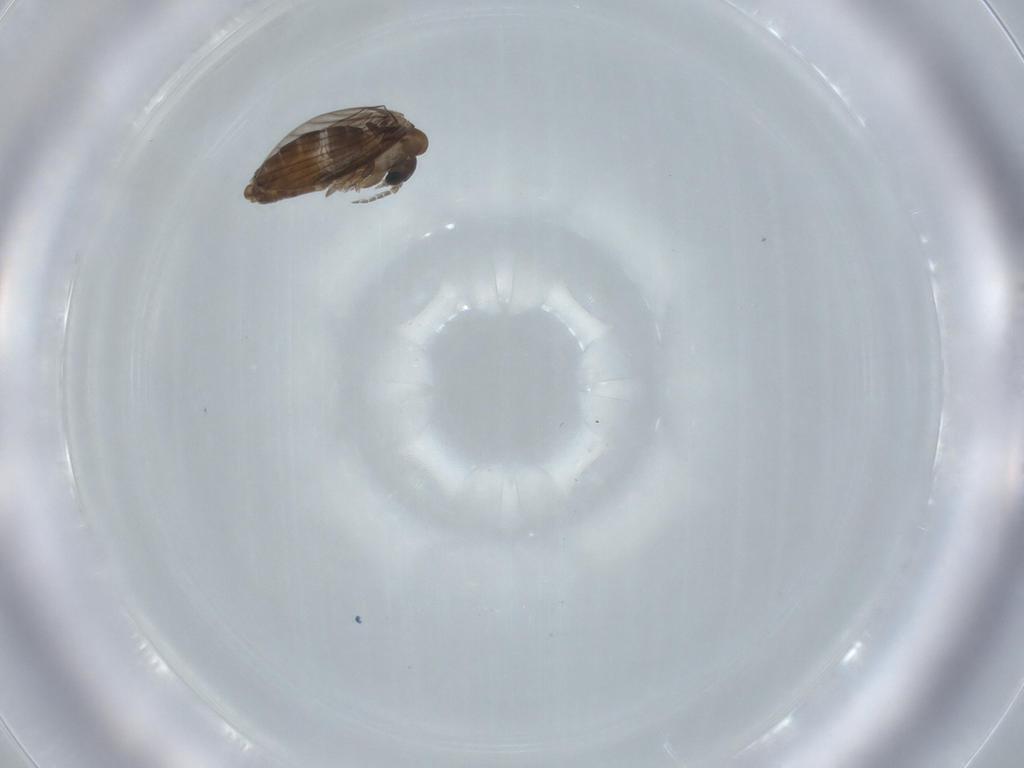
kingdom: Animalia
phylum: Arthropoda
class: Insecta
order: Diptera
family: Psychodidae
